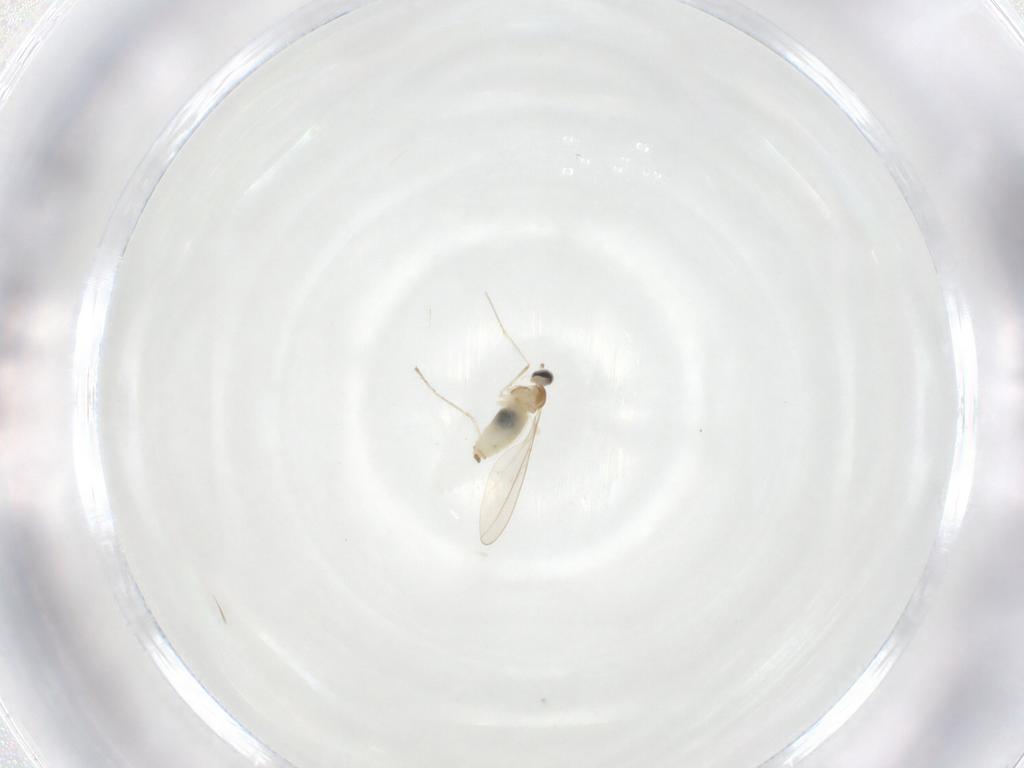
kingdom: Animalia
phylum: Arthropoda
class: Insecta
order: Diptera
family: Cecidomyiidae
